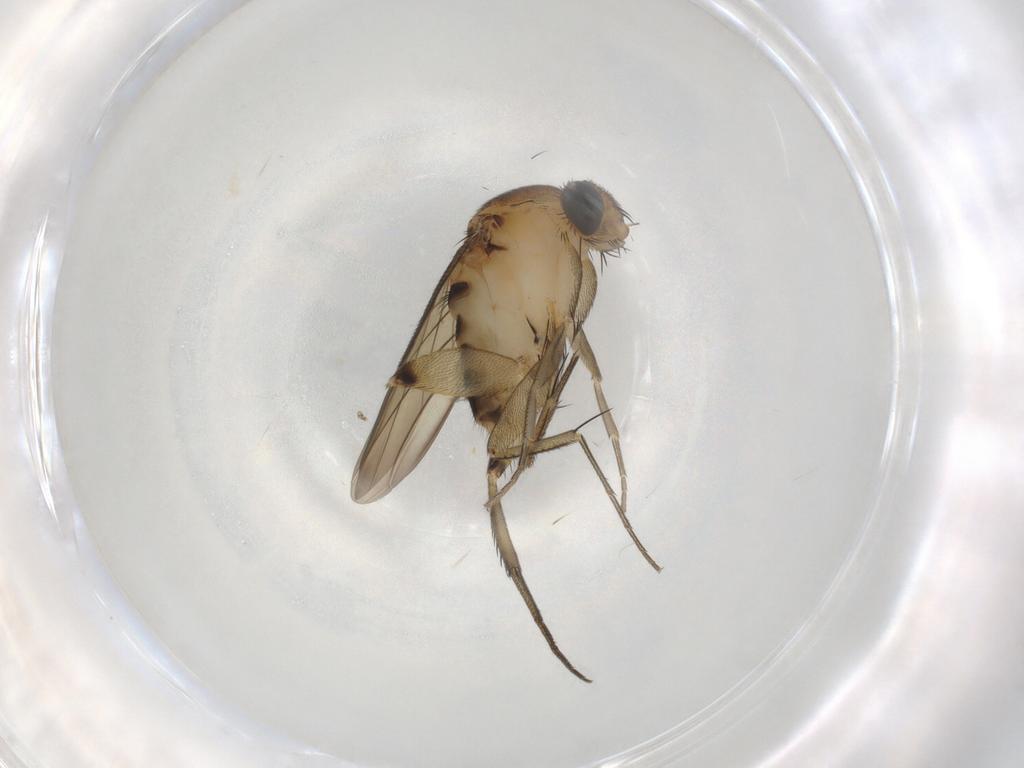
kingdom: Animalia
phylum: Arthropoda
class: Insecta
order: Diptera
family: Phoridae
